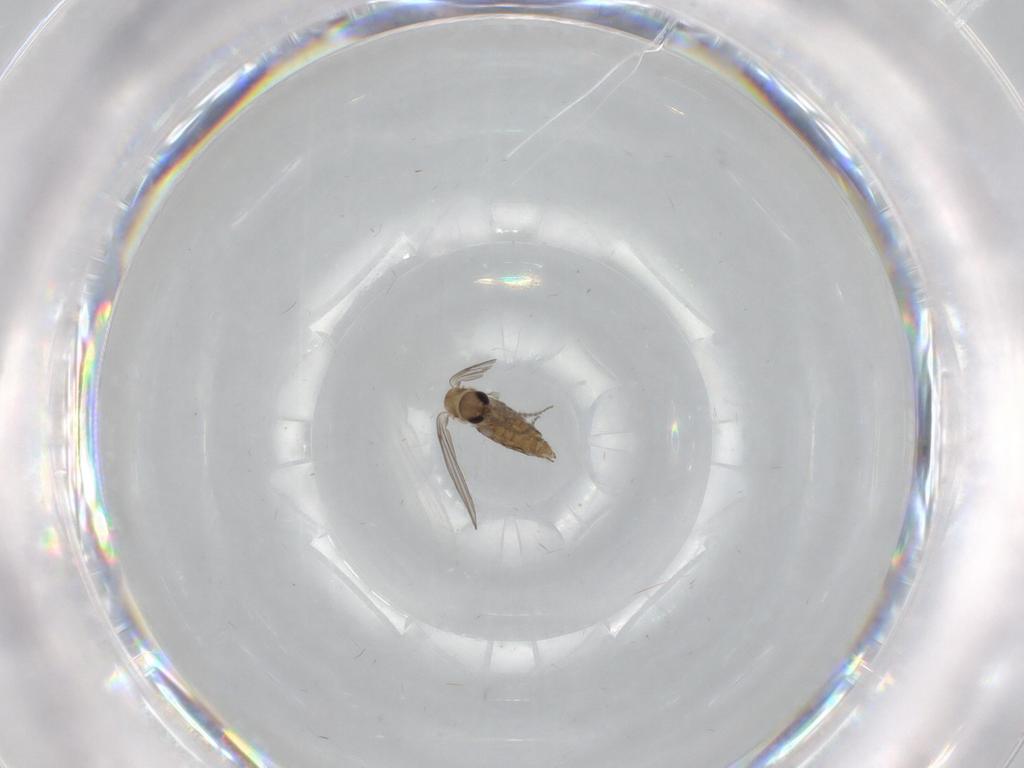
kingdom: Animalia
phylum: Arthropoda
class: Insecta
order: Diptera
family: Psychodidae
